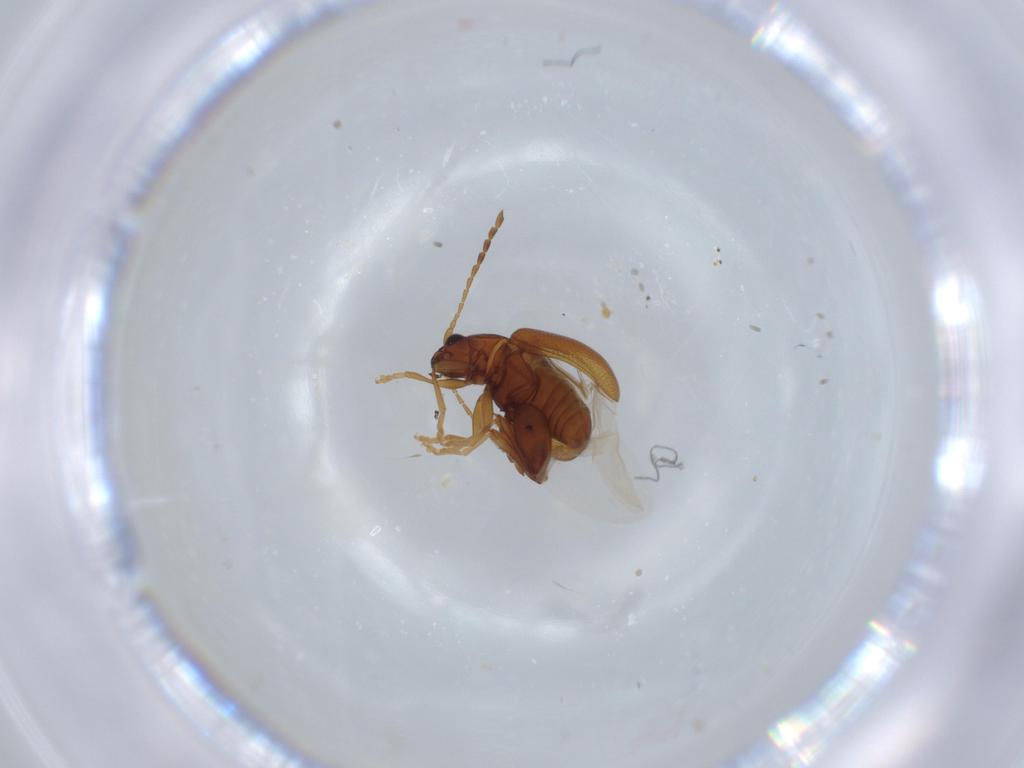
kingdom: Animalia
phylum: Arthropoda
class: Insecta
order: Coleoptera
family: Chrysomelidae
